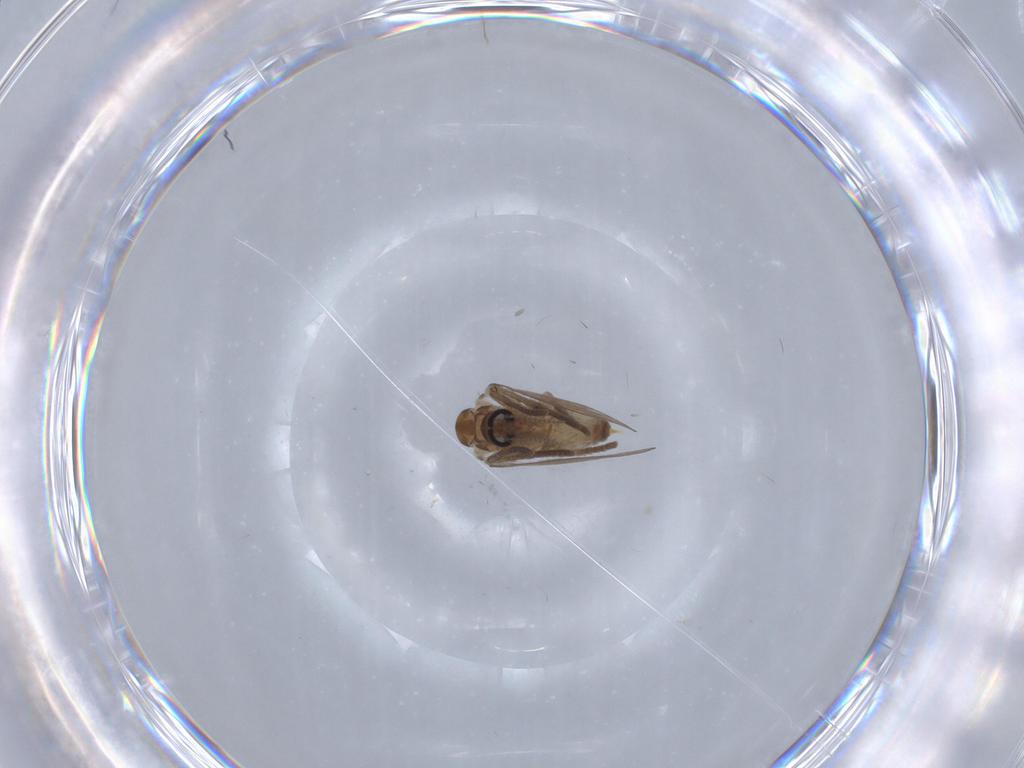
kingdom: Animalia
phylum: Arthropoda
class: Insecta
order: Diptera
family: Psychodidae
